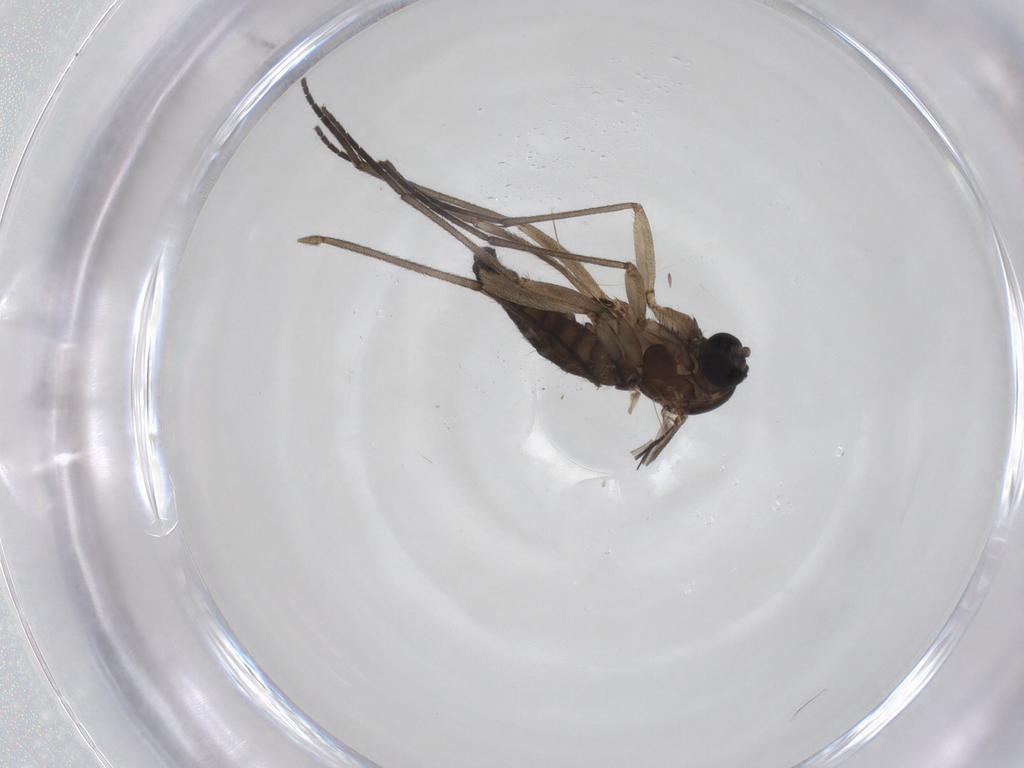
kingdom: Animalia
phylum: Arthropoda
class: Insecta
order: Diptera
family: Sciaridae
